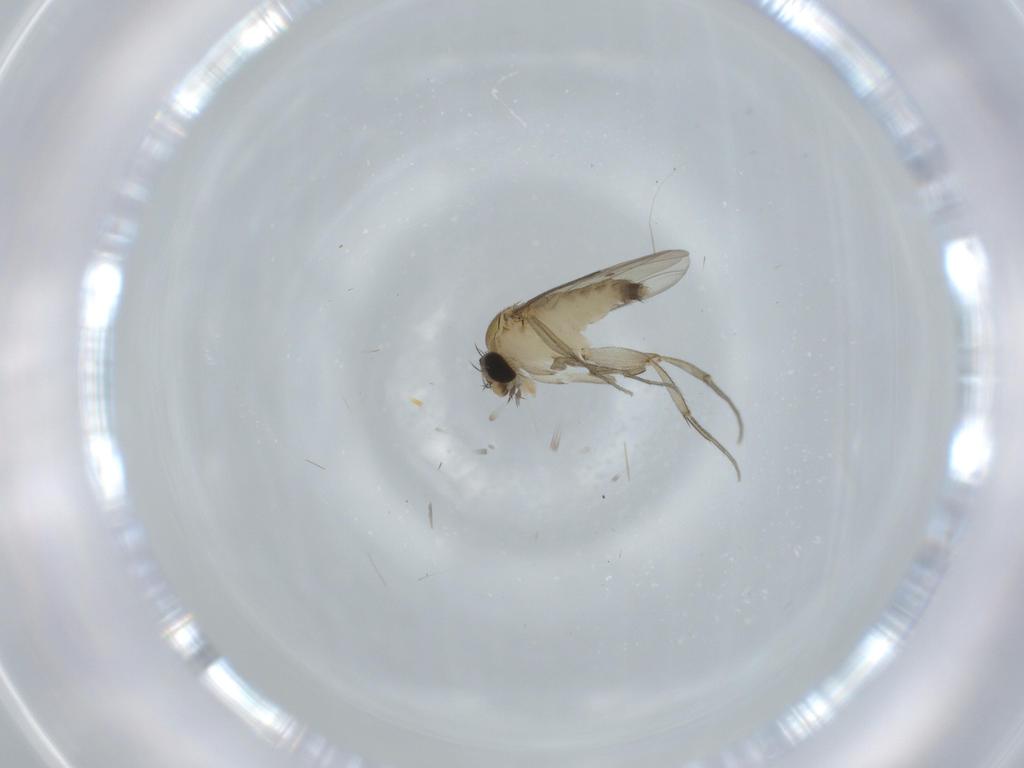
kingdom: Animalia
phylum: Arthropoda
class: Insecta
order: Diptera
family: Phoridae
